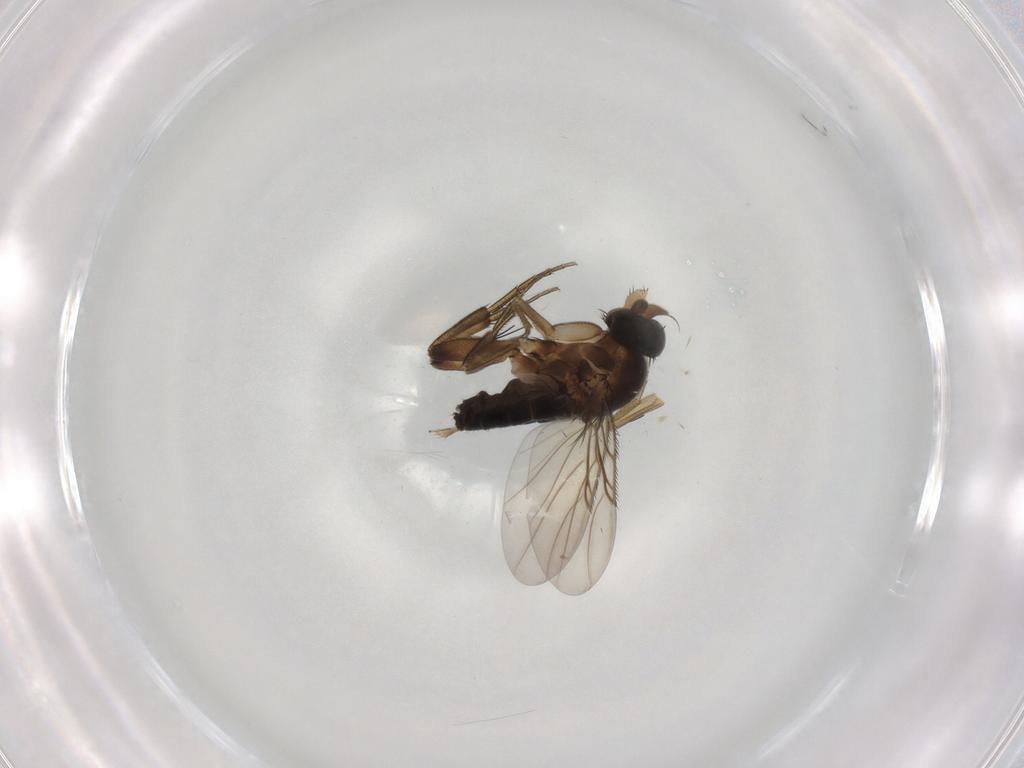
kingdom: Animalia
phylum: Arthropoda
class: Insecta
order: Diptera
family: Phoridae
